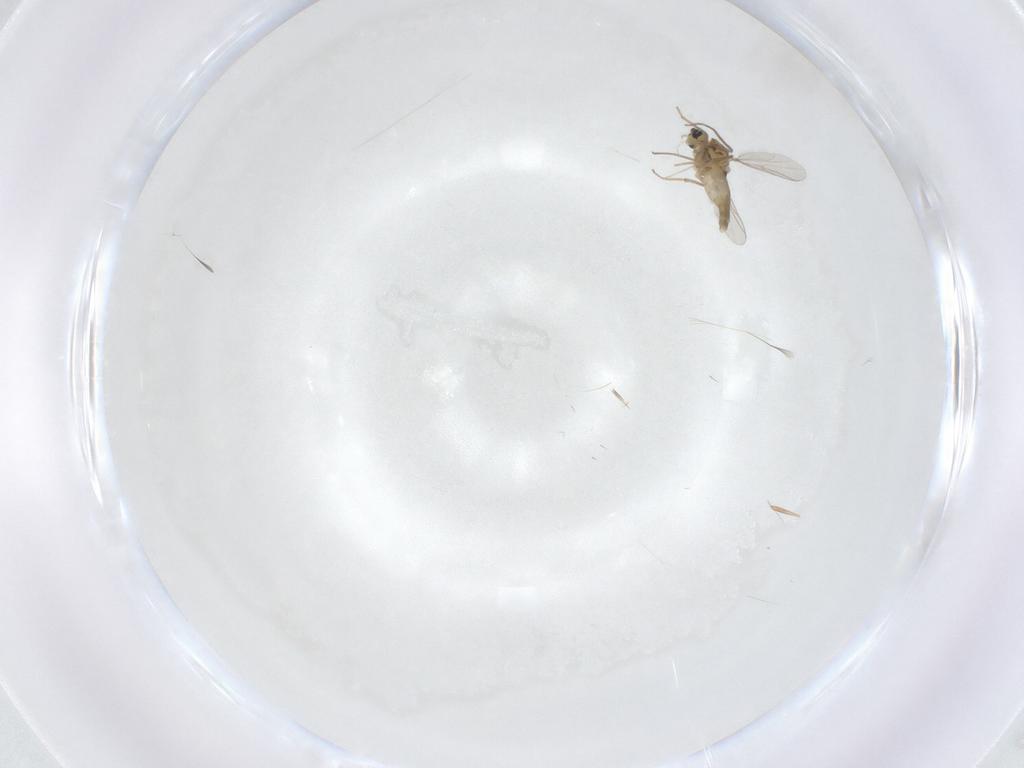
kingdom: Animalia
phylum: Arthropoda
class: Insecta
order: Diptera
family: Chironomidae
